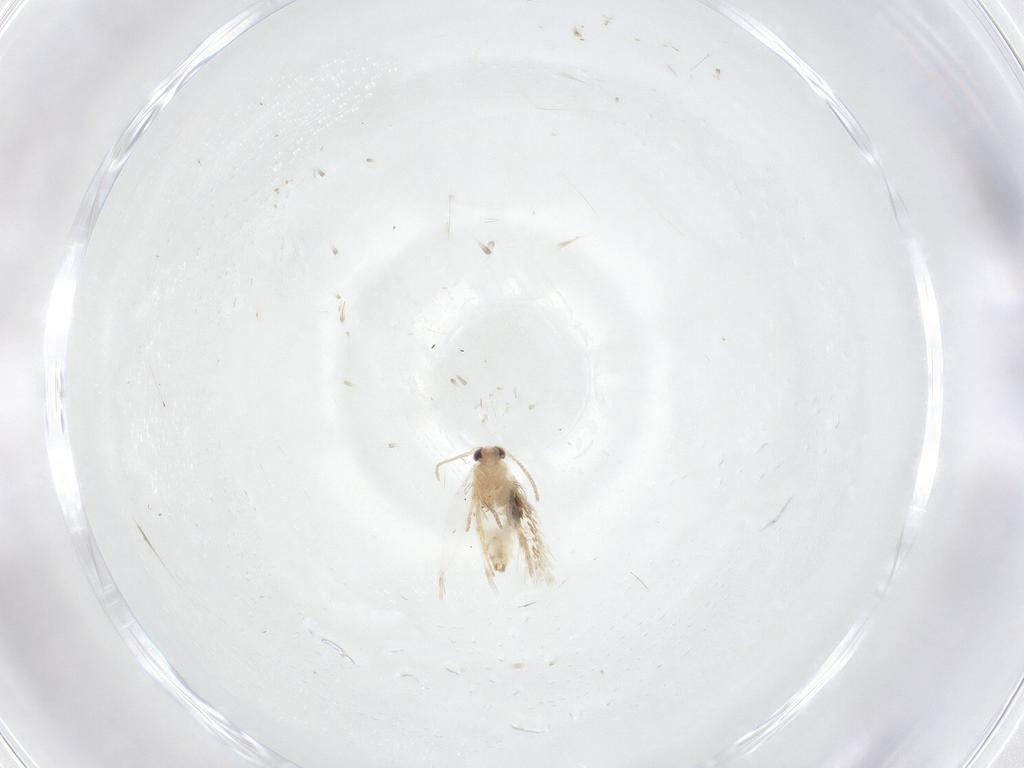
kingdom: Animalia
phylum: Arthropoda
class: Insecta
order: Lepidoptera
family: Nepticulidae
